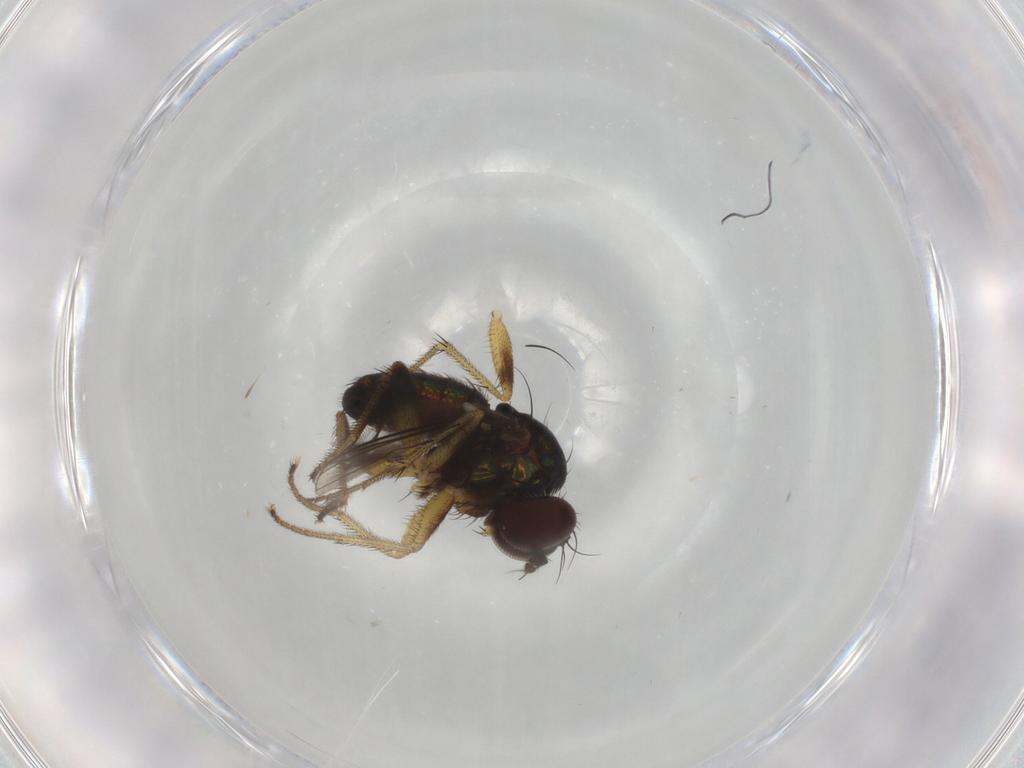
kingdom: Animalia
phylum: Arthropoda
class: Insecta
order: Diptera
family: Dolichopodidae
